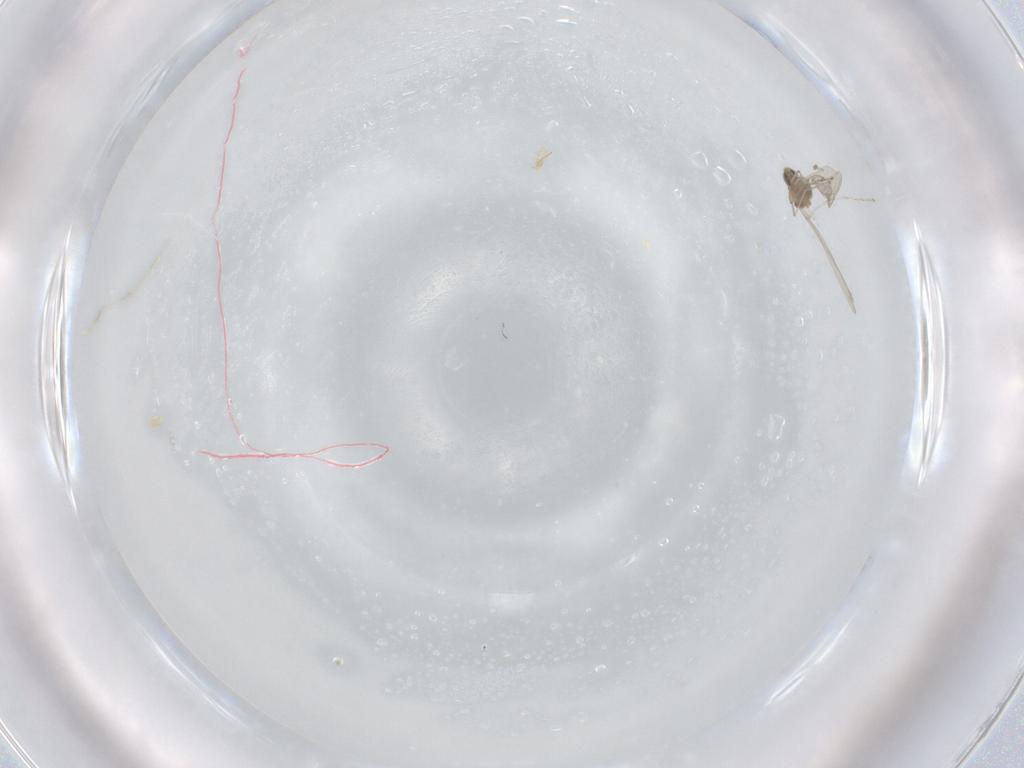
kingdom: Animalia
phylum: Arthropoda
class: Insecta
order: Diptera
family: Cecidomyiidae
